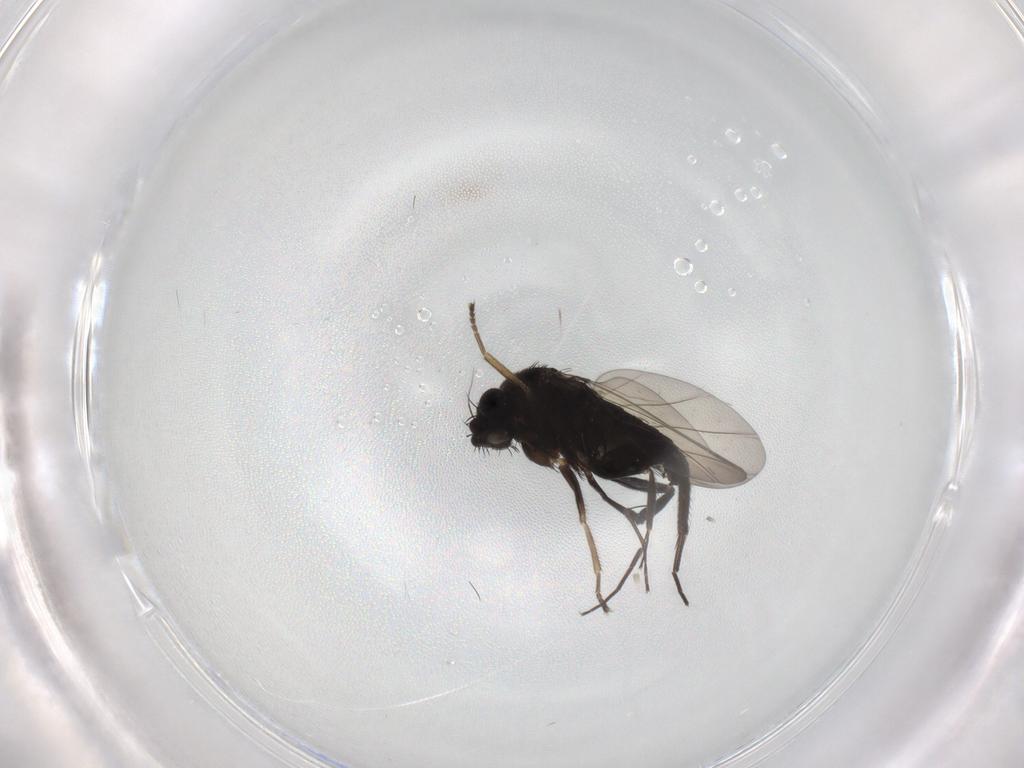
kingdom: Animalia
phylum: Arthropoda
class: Insecta
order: Diptera
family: Phoridae
